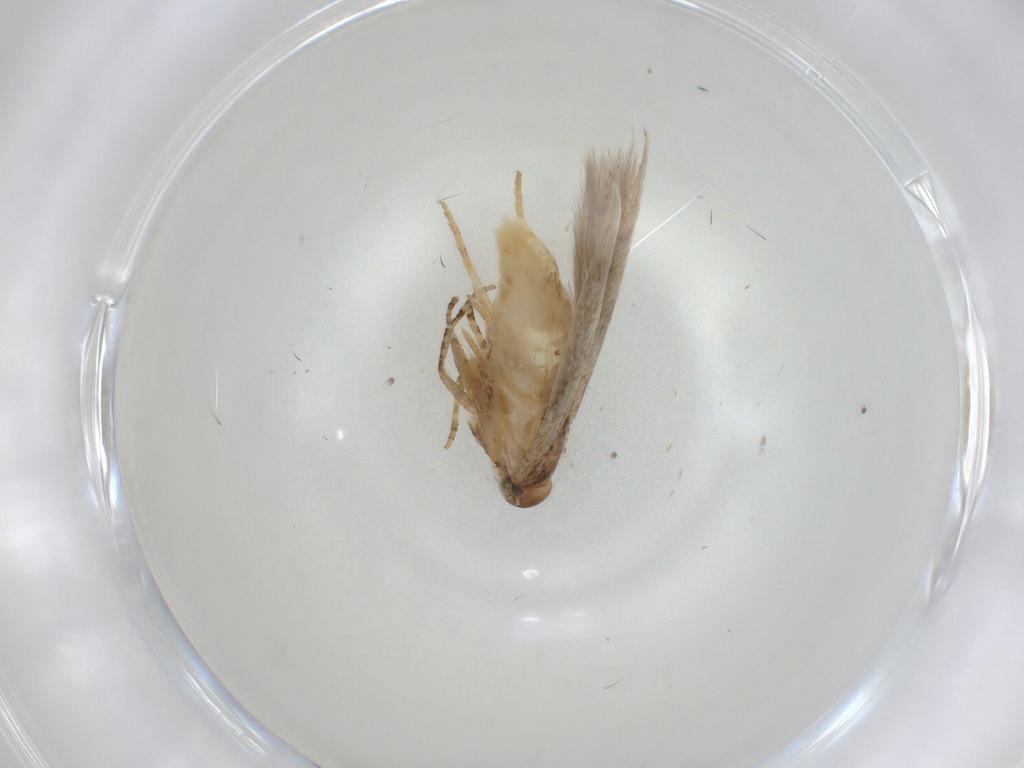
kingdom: Animalia
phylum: Arthropoda
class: Insecta
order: Lepidoptera
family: Gelechiidae
